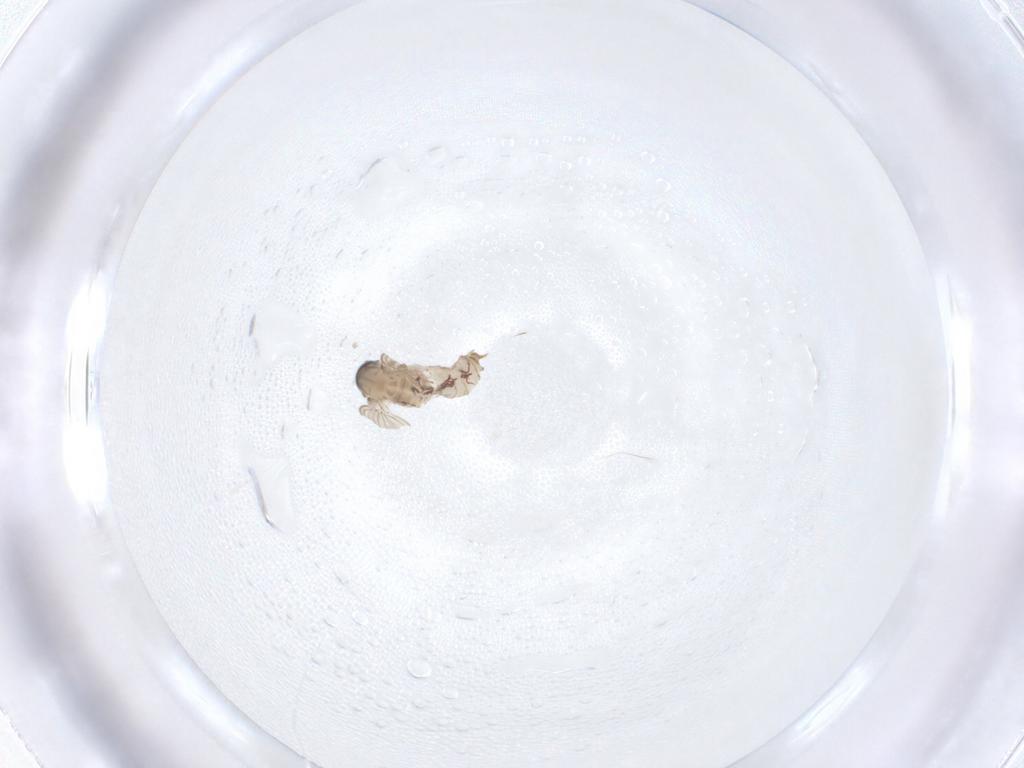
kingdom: Animalia
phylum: Arthropoda
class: Insecta
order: Diptera
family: Psychodidae
